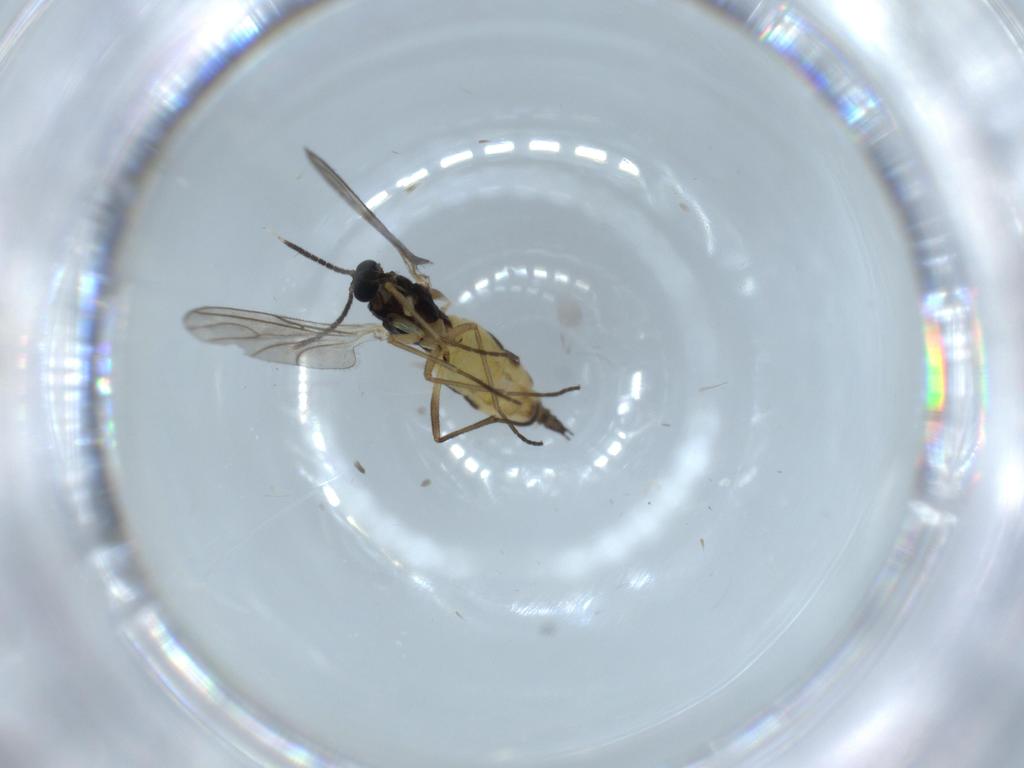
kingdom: Animalia
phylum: Arthropoda
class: Insecta
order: Diptera
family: Sciaridae
